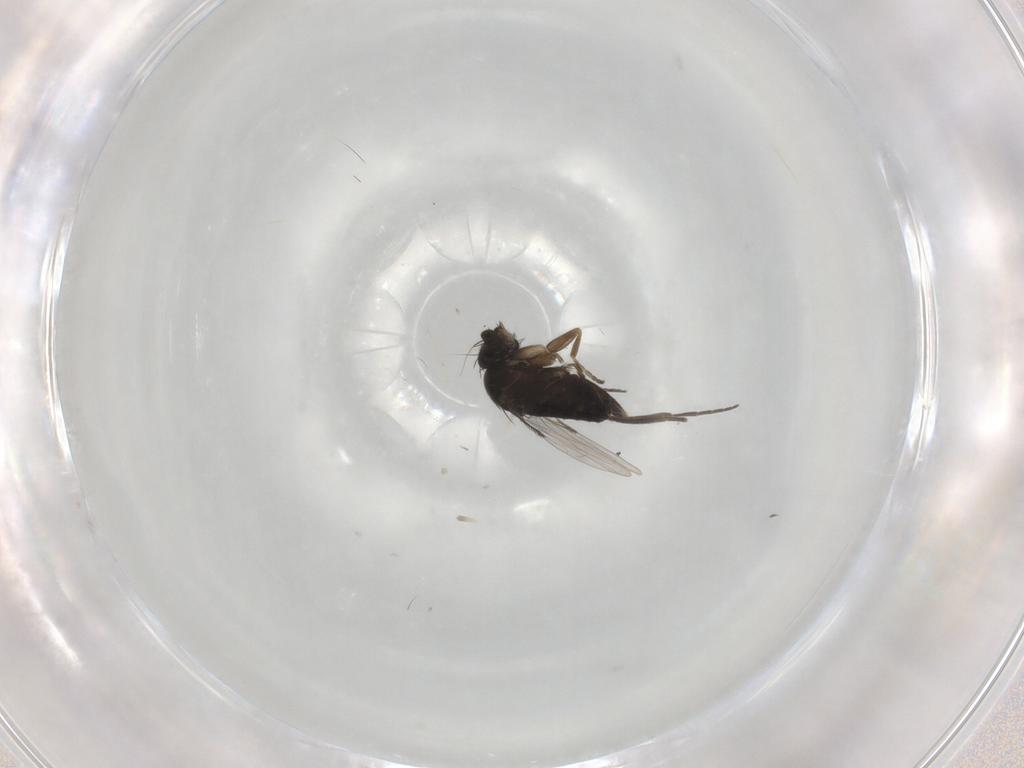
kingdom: Animalia
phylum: Arthropoda
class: Insecta
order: Diptera
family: Phoridae
